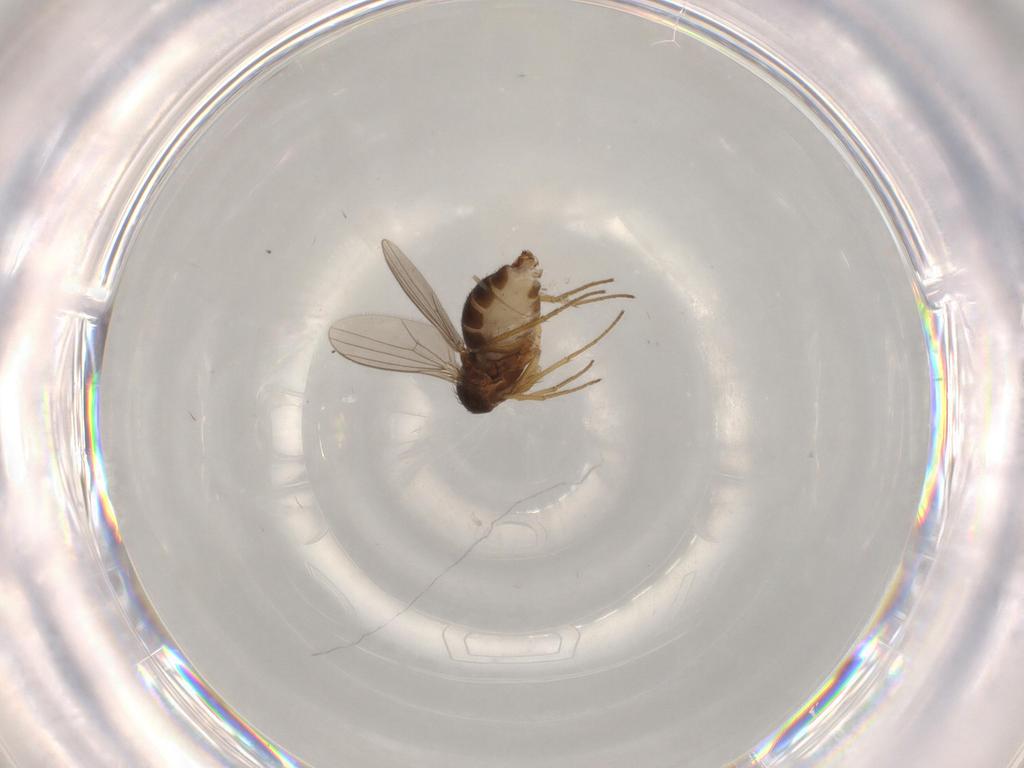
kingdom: Animalia
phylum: Arthropoda
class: Insecta
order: Diptera
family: Dolichopodidae
